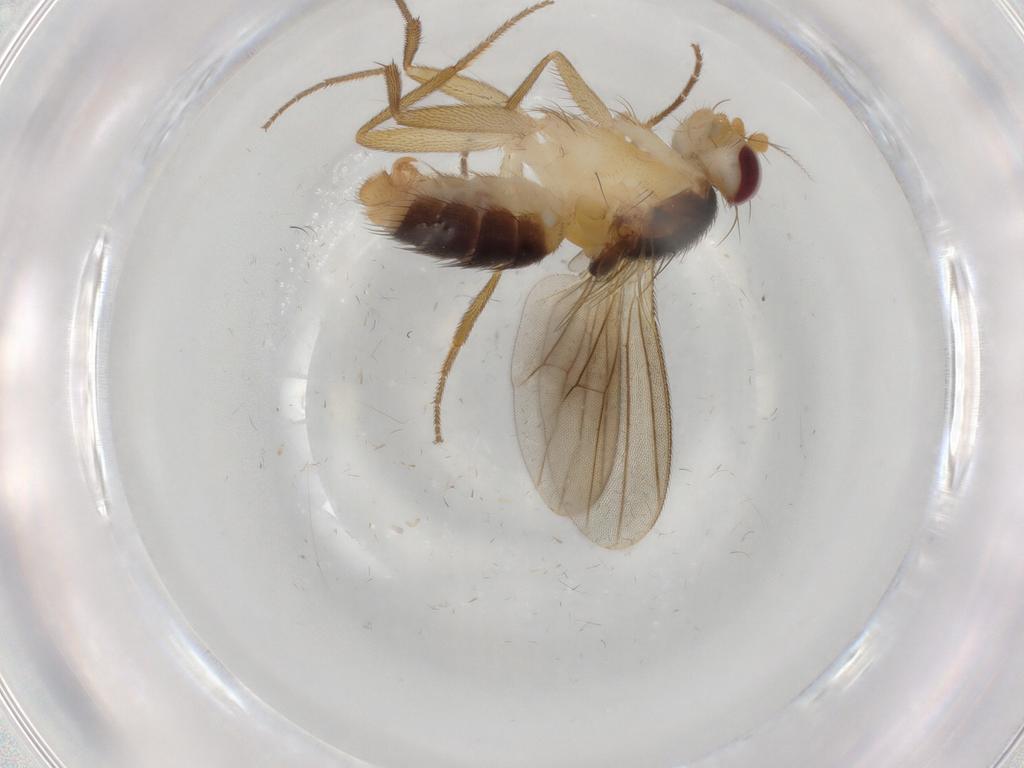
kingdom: Animalia
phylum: Arthropoda
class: Insecta
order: Diptera
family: Clusiidae
